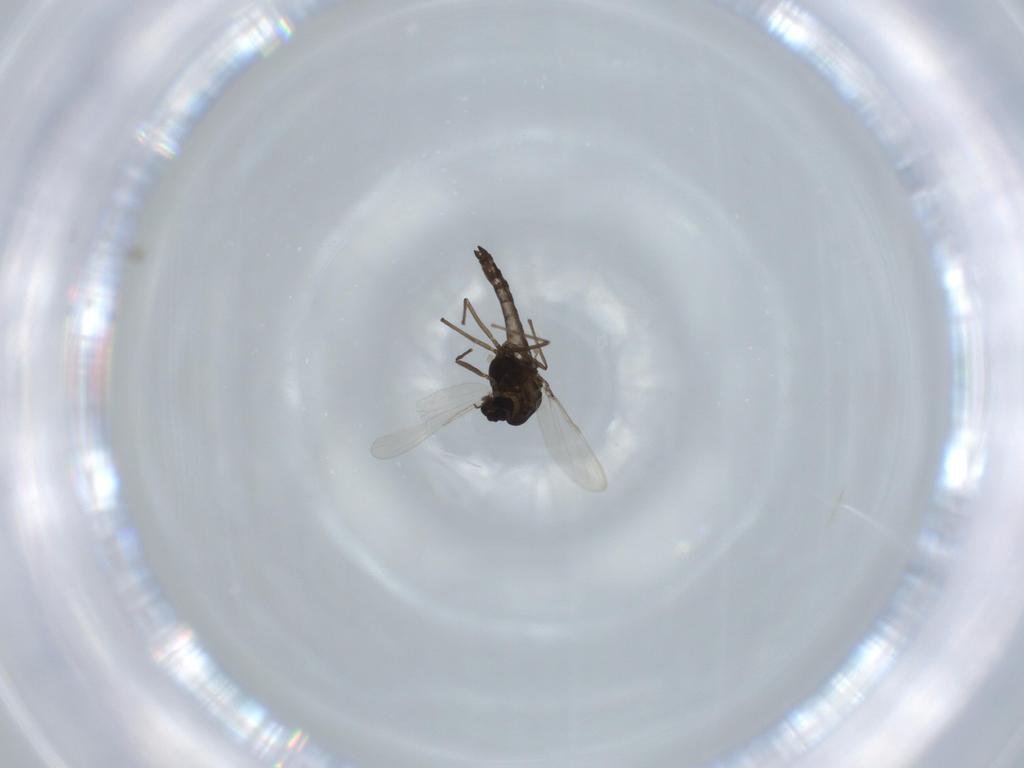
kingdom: Animalia
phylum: Arthropoda
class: Insecta
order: Diptera
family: Chironomidae
